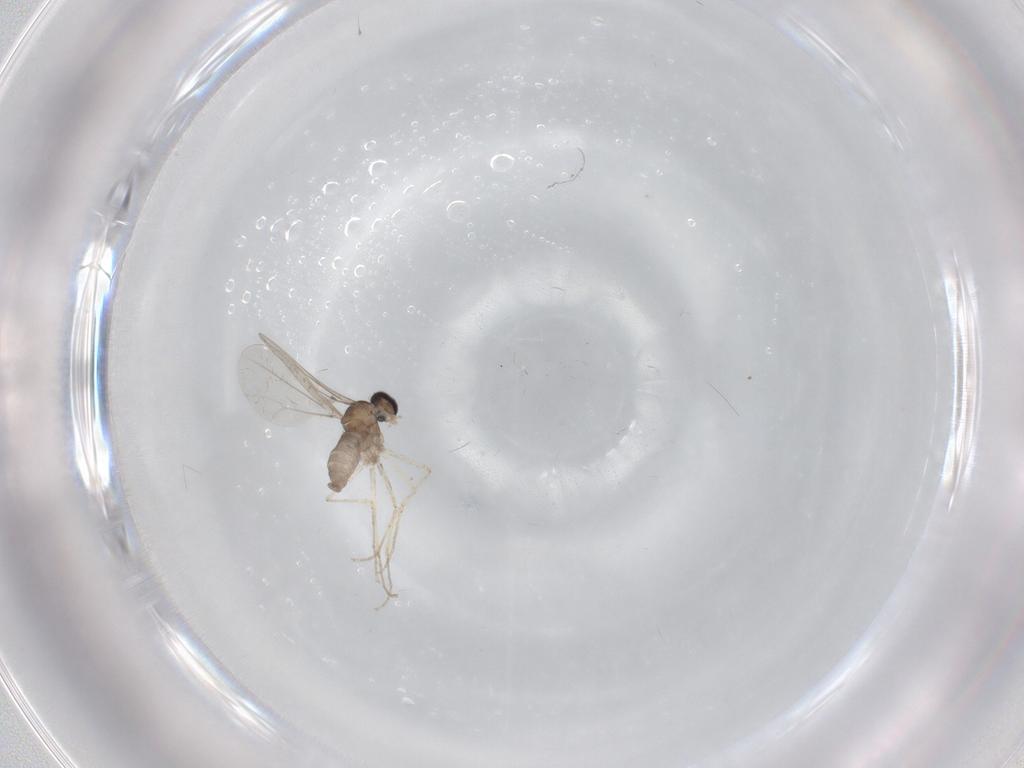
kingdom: Animalia
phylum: Arthropoda
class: Insecta
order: Diptera
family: Cecidomyiidae
